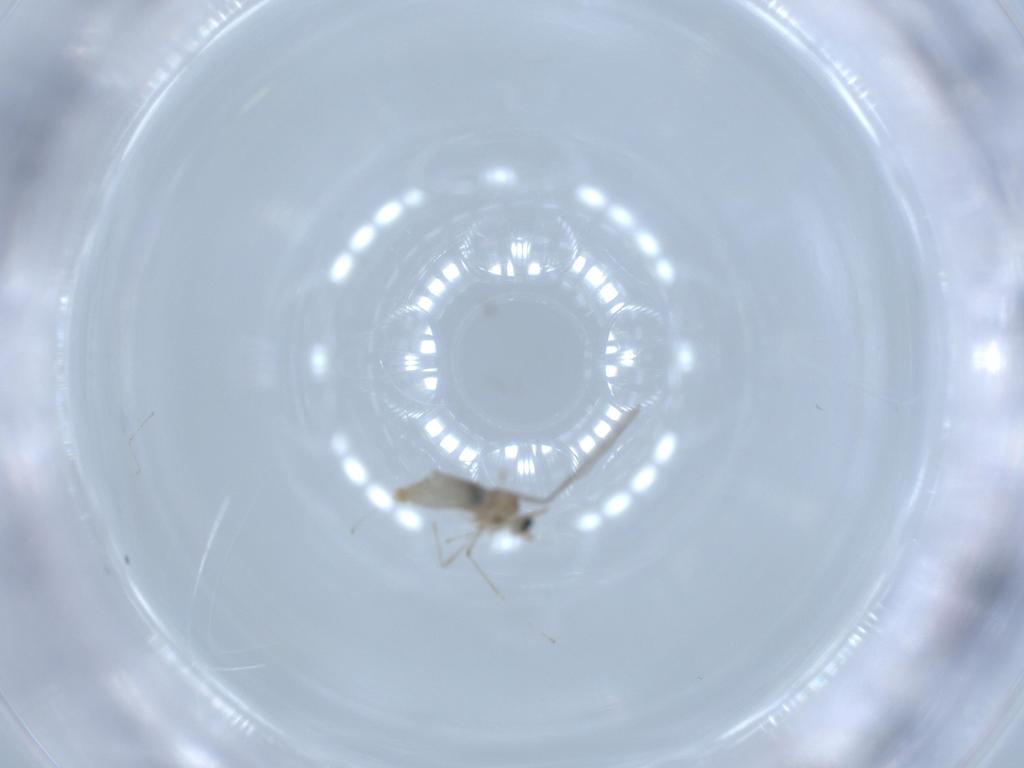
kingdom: Animalia
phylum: Arthropoda
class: Insecta
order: Diptera
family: Cecidomyiidae
